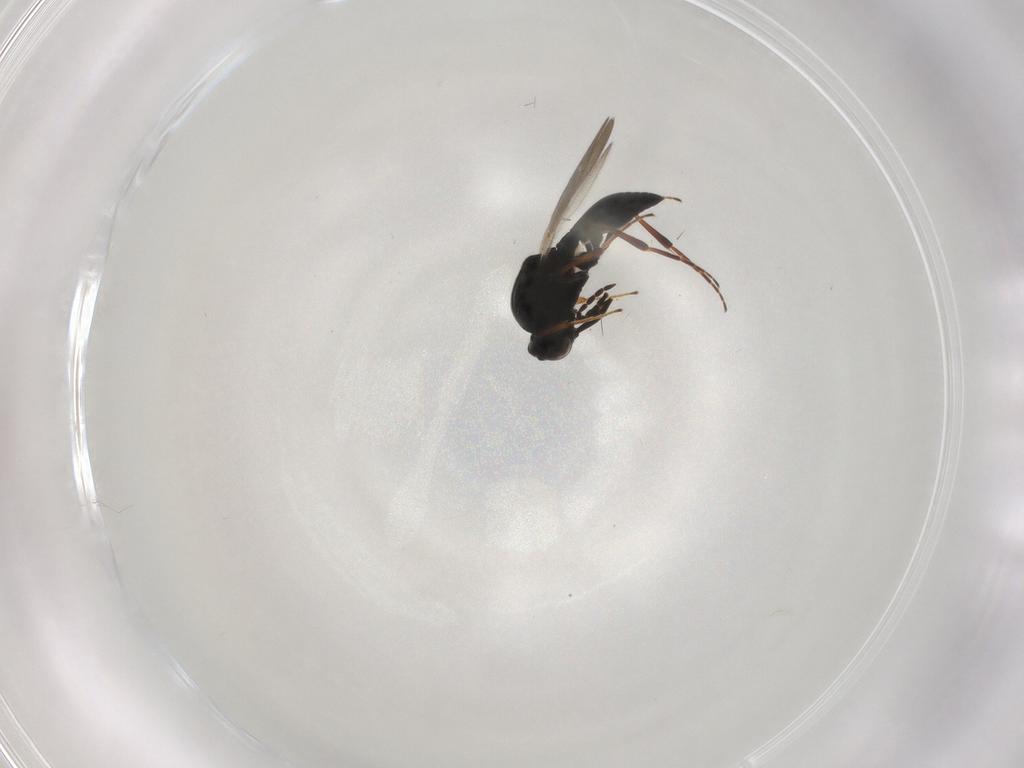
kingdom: Animalia
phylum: Arthropoda
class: Insecta
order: Hymenoptera
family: Platygastridae
